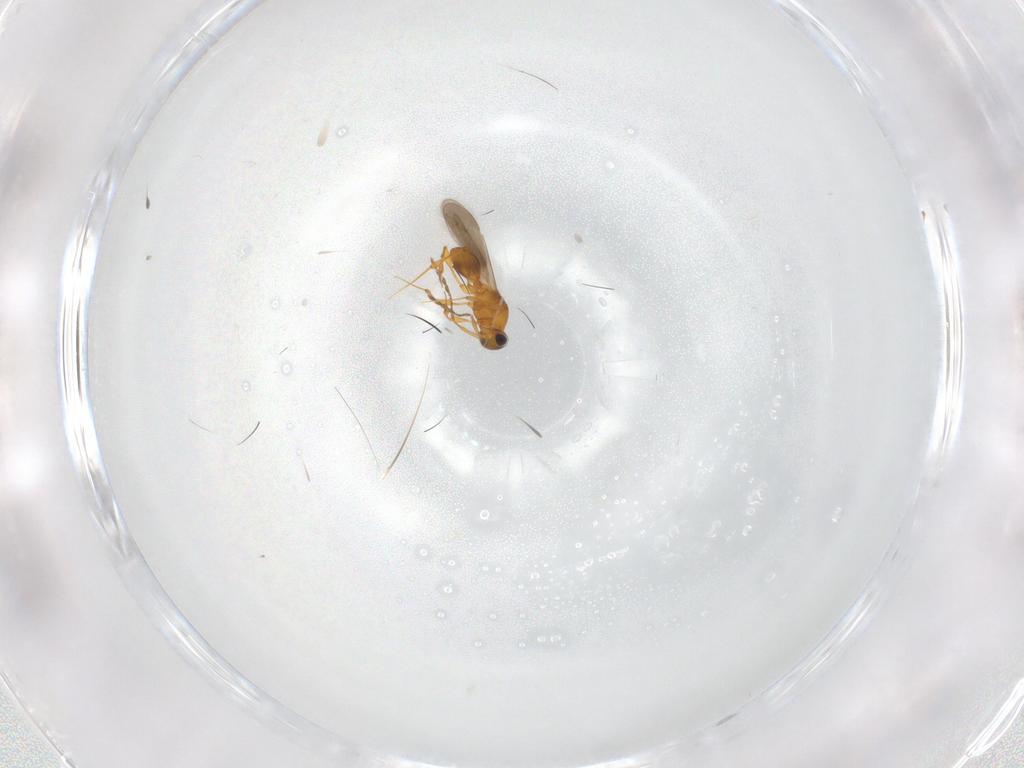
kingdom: Animalia
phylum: Arthropoda
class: Insecta
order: Hymenoptera
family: Platygastridae
